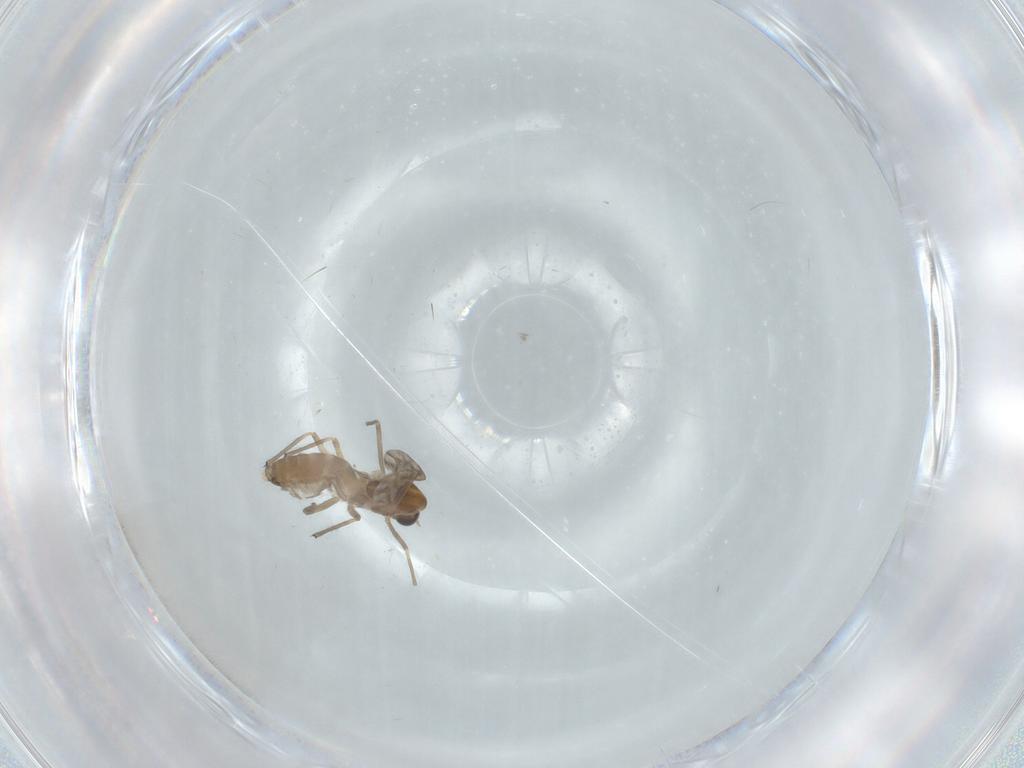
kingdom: Animalia
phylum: Arthropoda
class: Insecta
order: Diptera
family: Chironomidae
